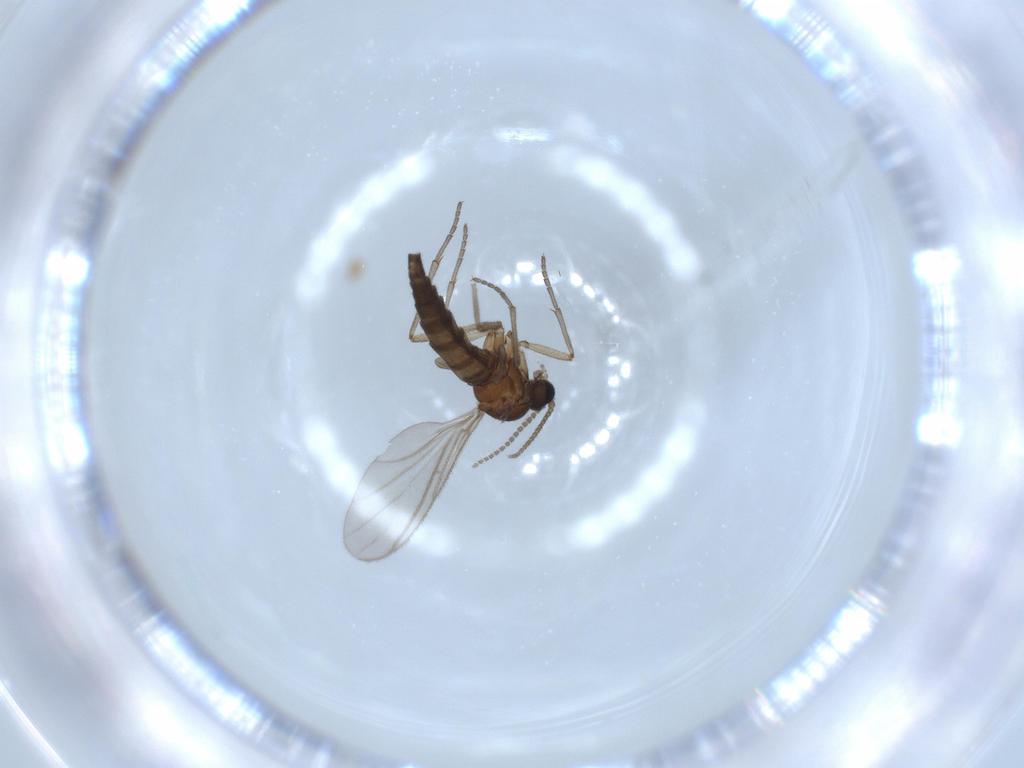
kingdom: Animalia
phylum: Arthropoda
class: Insecta
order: Diptera
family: Sciaridae
